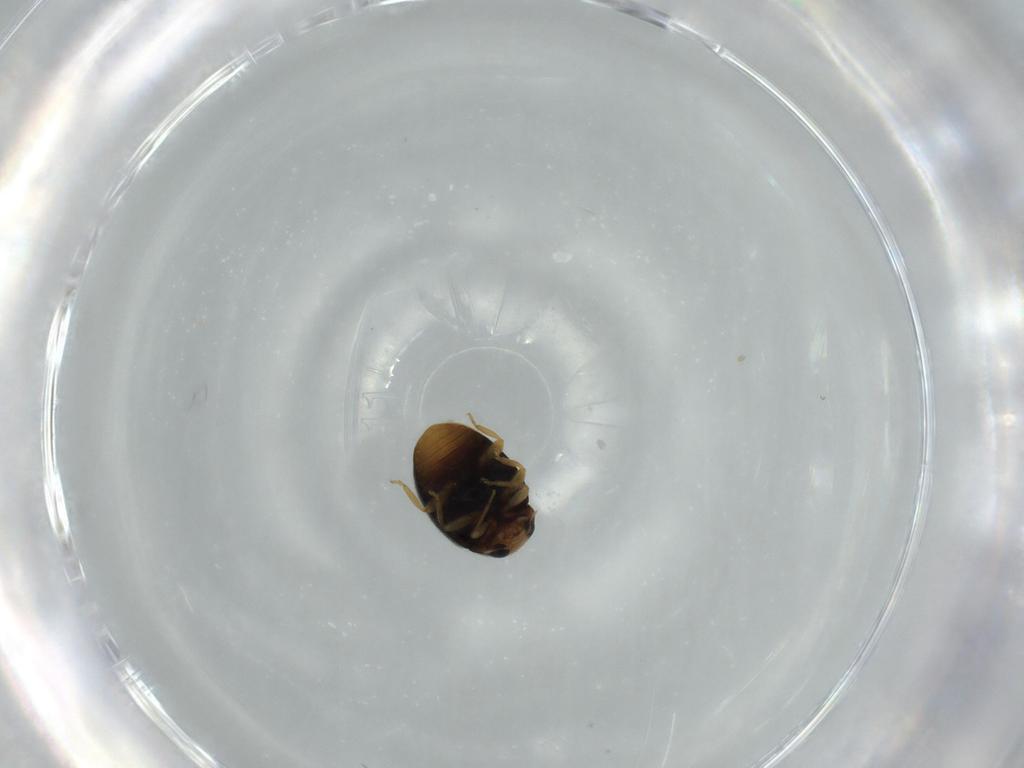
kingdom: Animalia
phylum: Arthropoda
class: Insecta
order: Coleoptera
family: Coccinellidae
